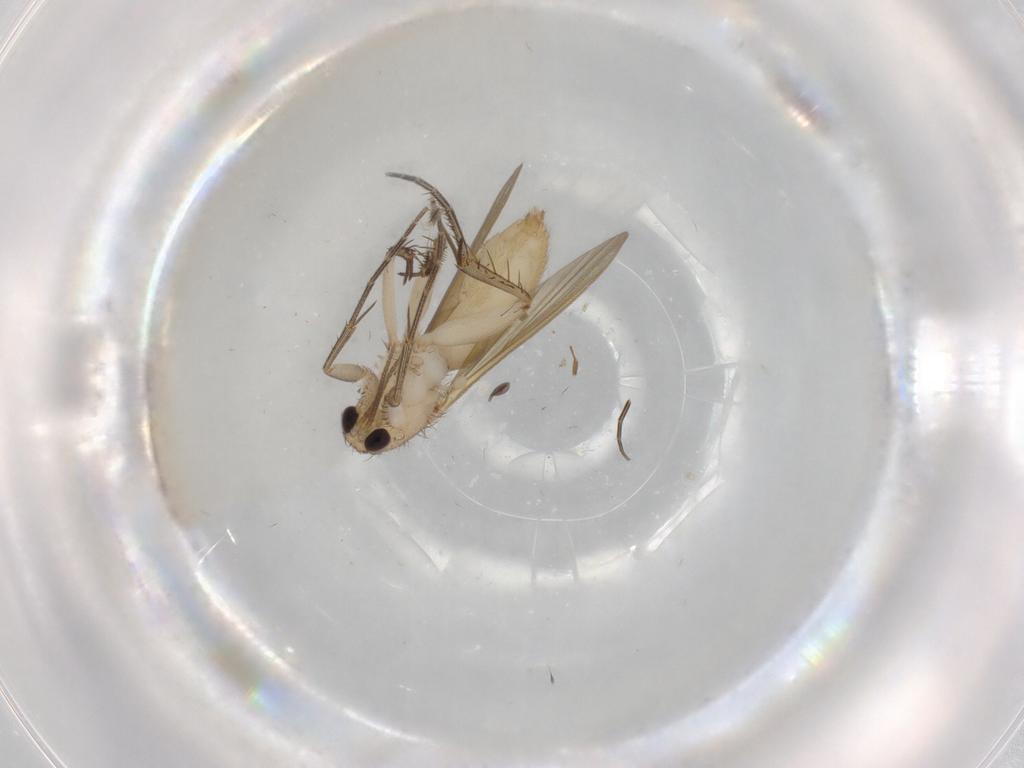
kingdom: Animalia
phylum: Arthropoda
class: Insecta
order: Diptera
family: Mycetophilidae
